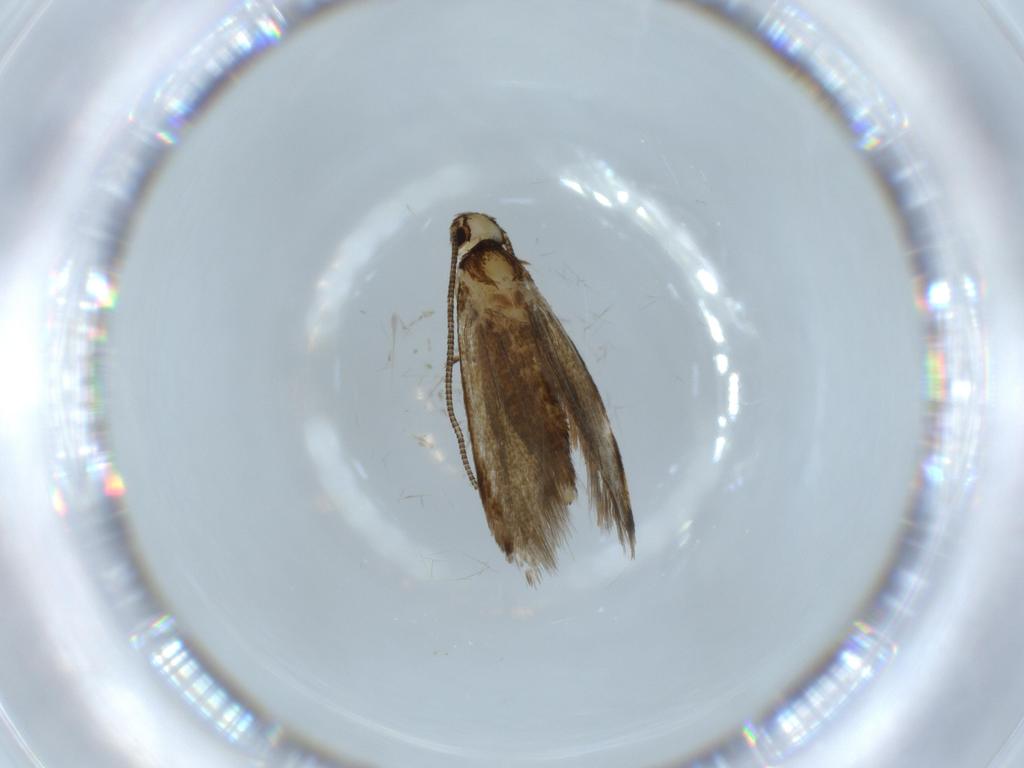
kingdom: Animalia
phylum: Arthropoda
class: Insecta
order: Lepidoptera
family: Tineidae
